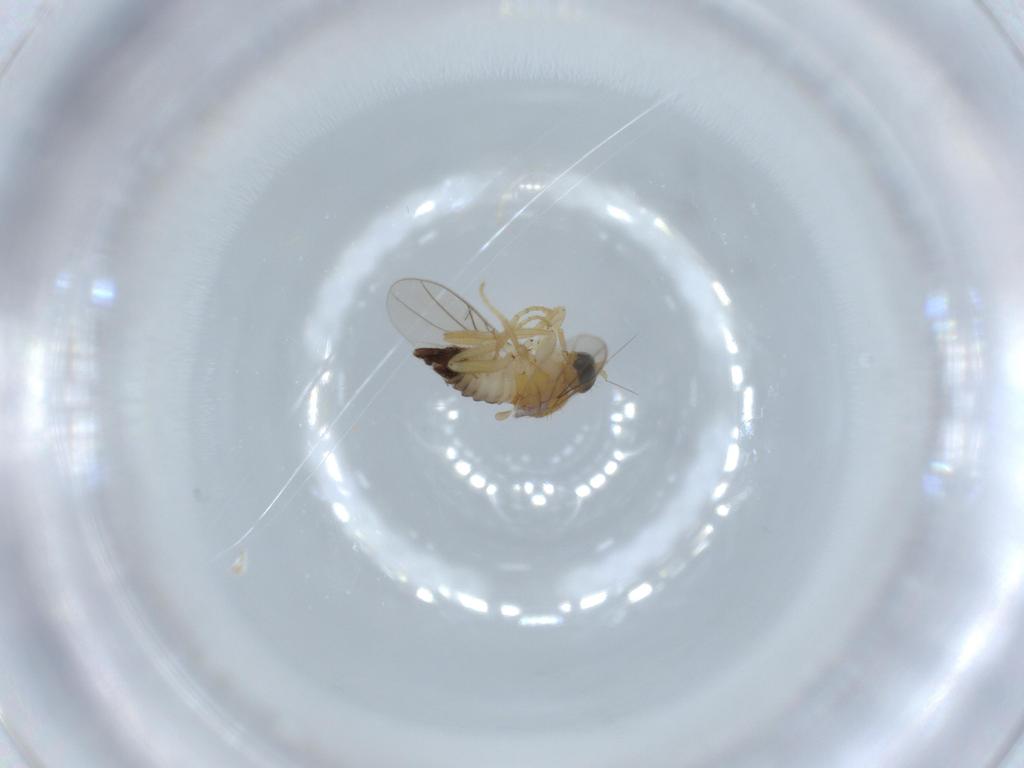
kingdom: Animalia
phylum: Arthropoda
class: Insecta
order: Diptera
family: Hybotidae
